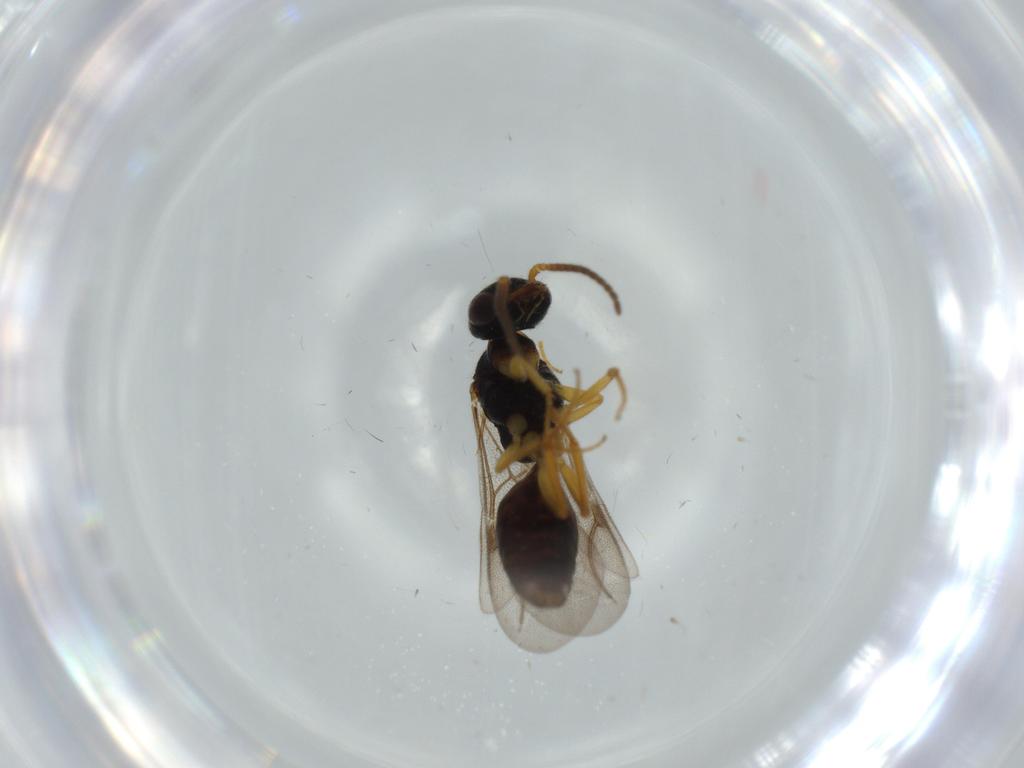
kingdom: Animalia
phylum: Arthropoda
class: Insecta
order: Hymenoptera
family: Bethylidae
